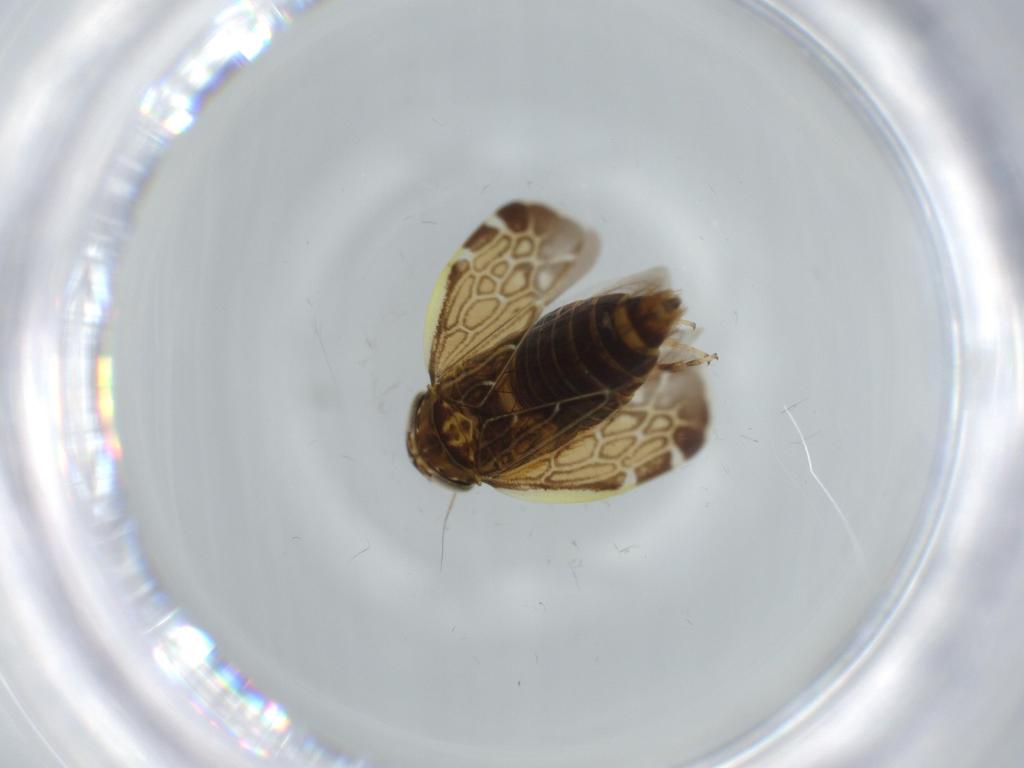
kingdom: Animalia
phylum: Arthropoda
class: Insecta
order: Hemiptera
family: Cicadellidae
